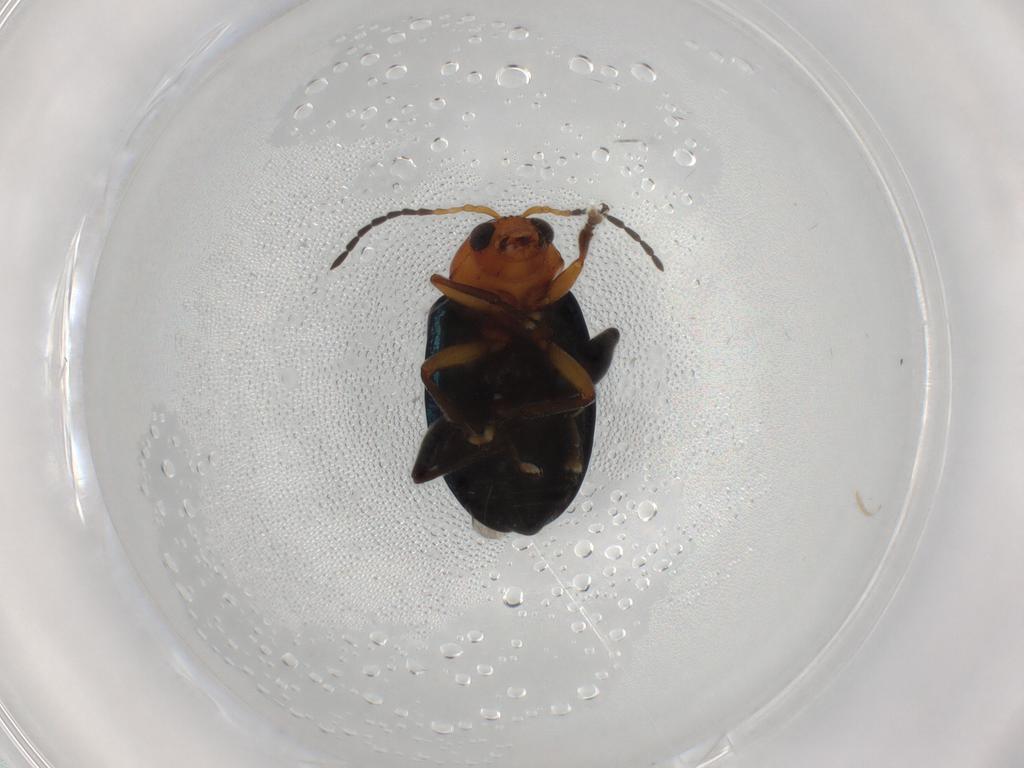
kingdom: Animalia
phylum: Arthropoda
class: Insecta
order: Coleoptera
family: Chrysomelidae
